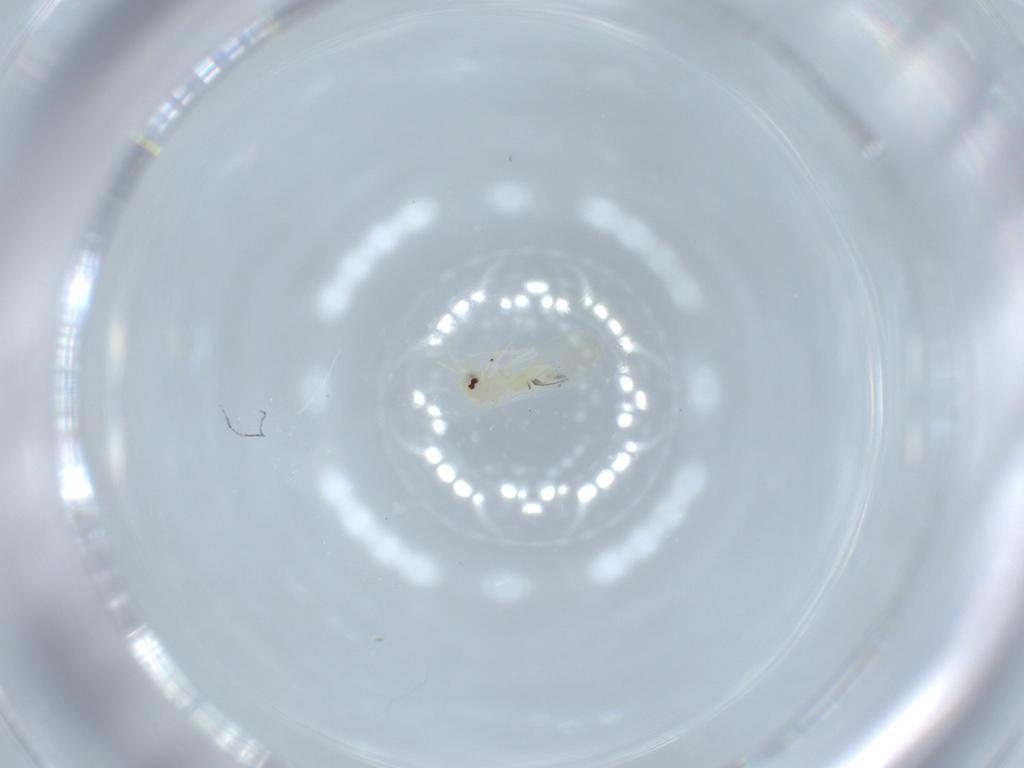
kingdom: Animalia
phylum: Arthropoda
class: Insecta
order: Hemiptera
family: Aleyrodidae
